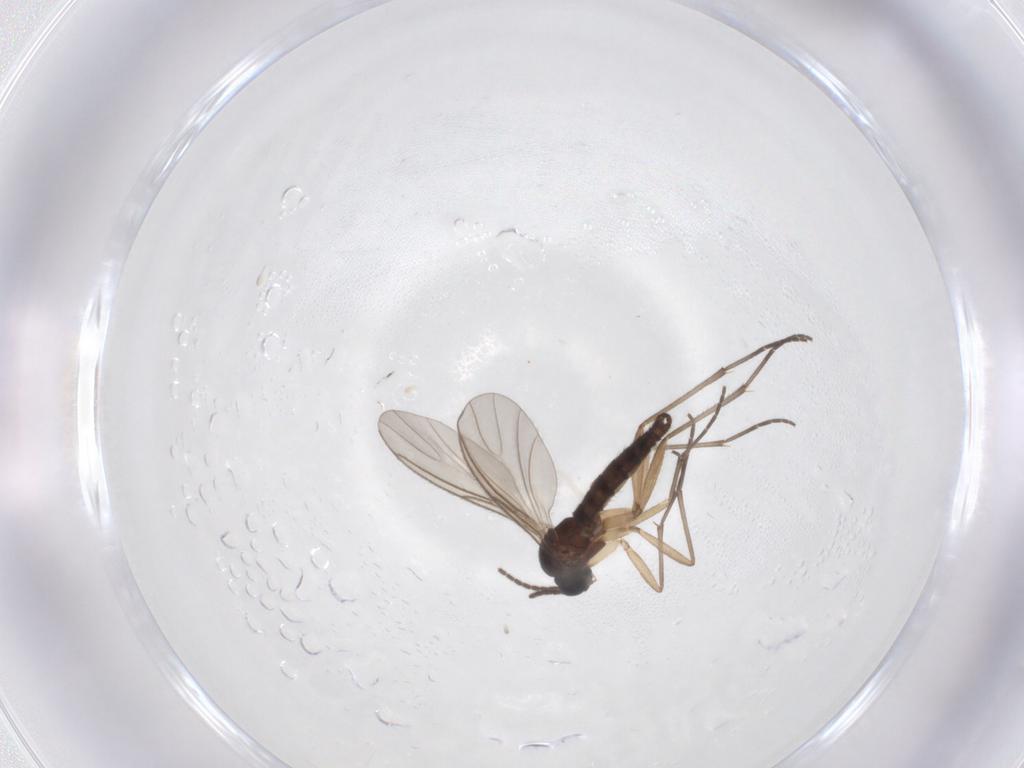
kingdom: Animalia
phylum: Arthropoda
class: Insecta
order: Diptera
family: Sciaridae
